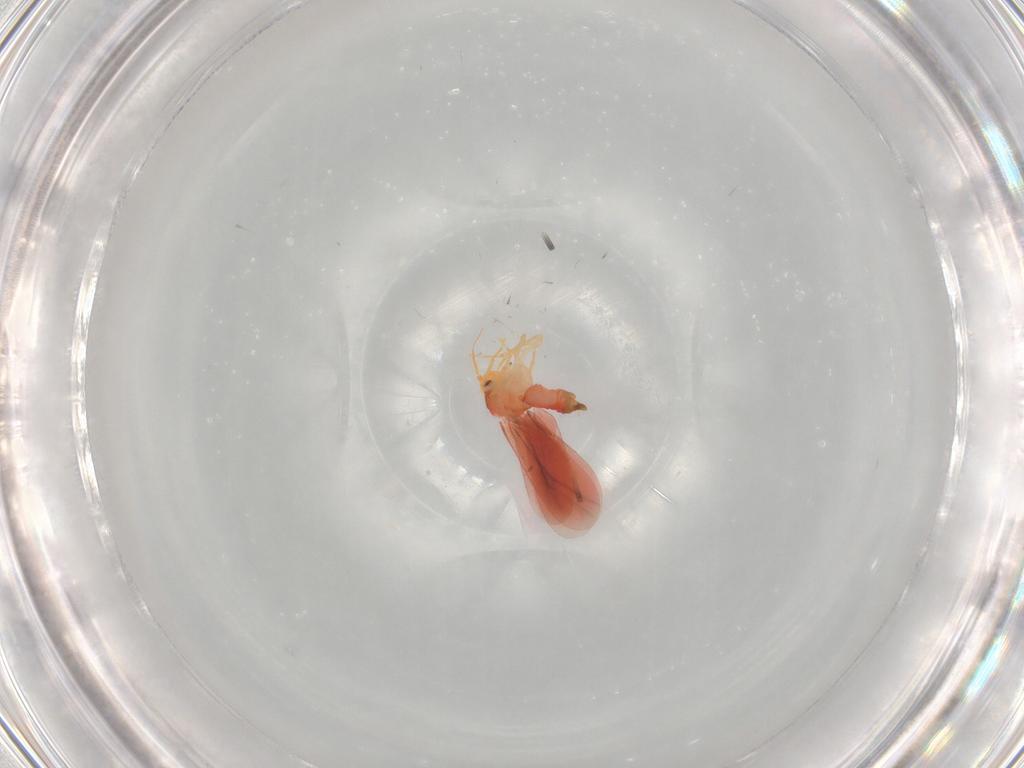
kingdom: Animalia
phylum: Arthropoda
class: Insecta
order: Hemiptera
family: Aleyrodidae
